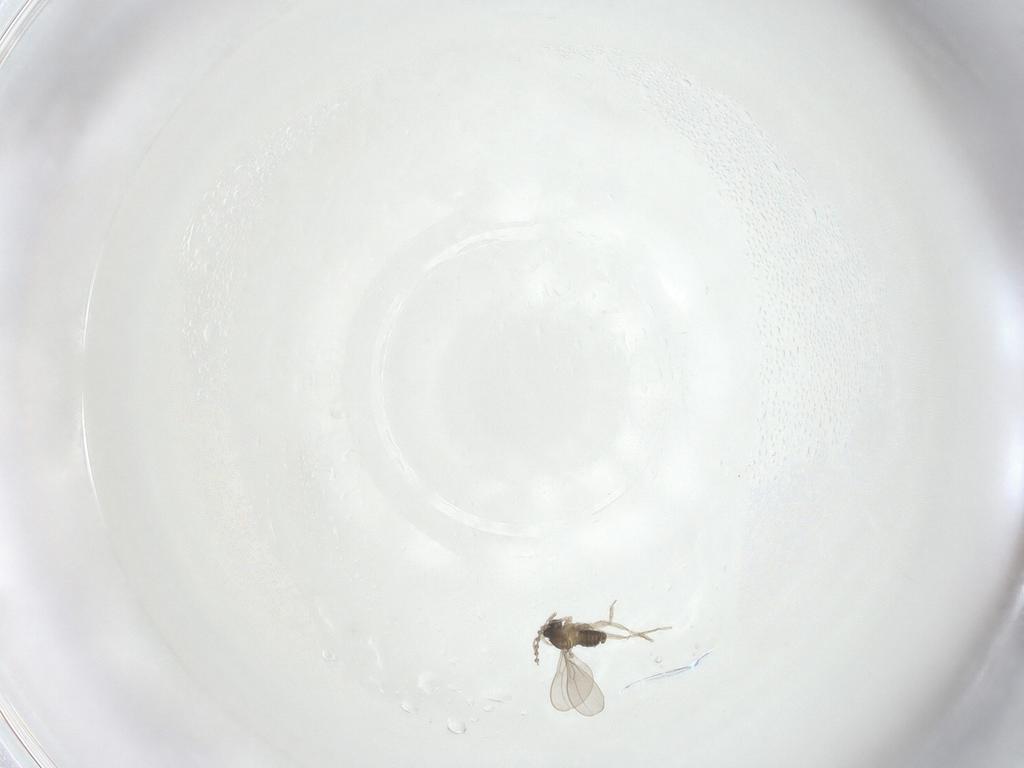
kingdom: Animalia
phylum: Arthropoda
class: Insecta
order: Diptera
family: Cecidomyiidae
